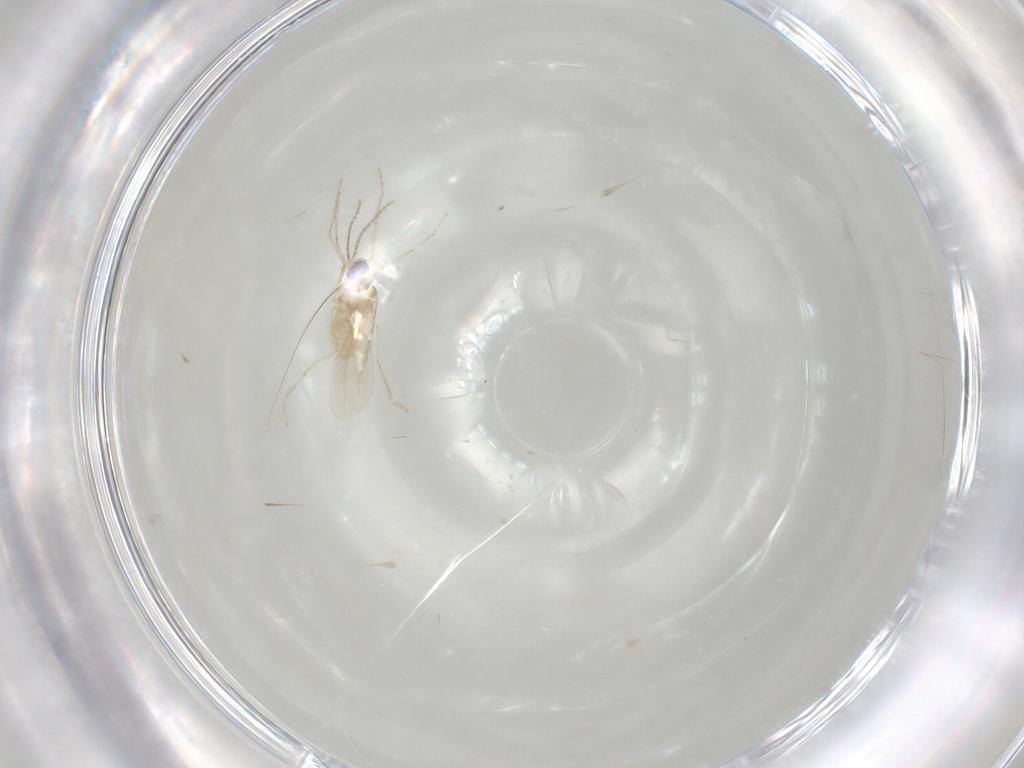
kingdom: Animalia
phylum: Arthropoda
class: Insecta
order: Diptera
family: Cecidomyiidae
